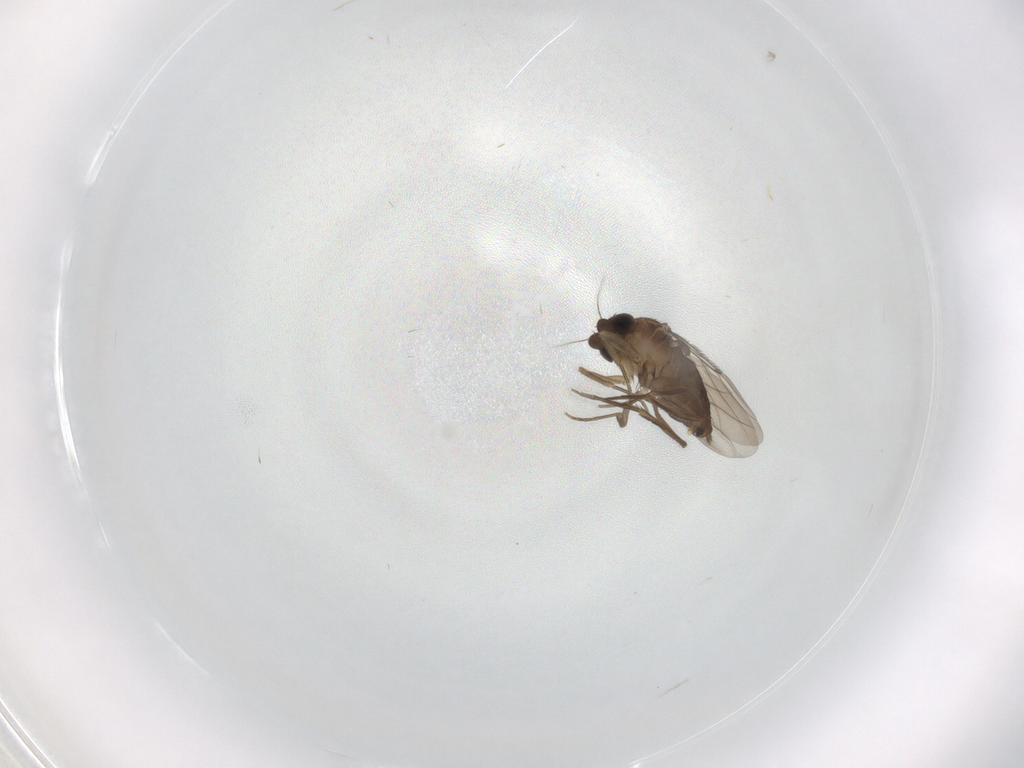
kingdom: Animalia
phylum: Arthropoda
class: Insecta
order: Diptera
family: Phoridae
